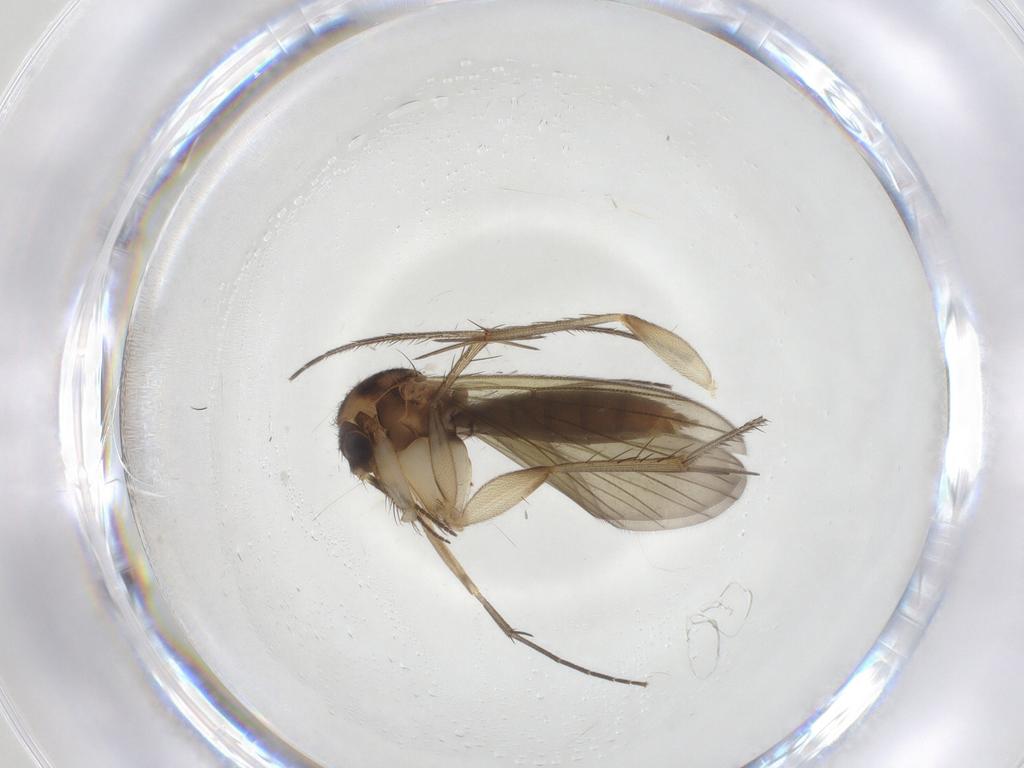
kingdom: Animalia
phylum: Arthropoda
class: Insecta
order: Diptera
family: Mycetophilidae
